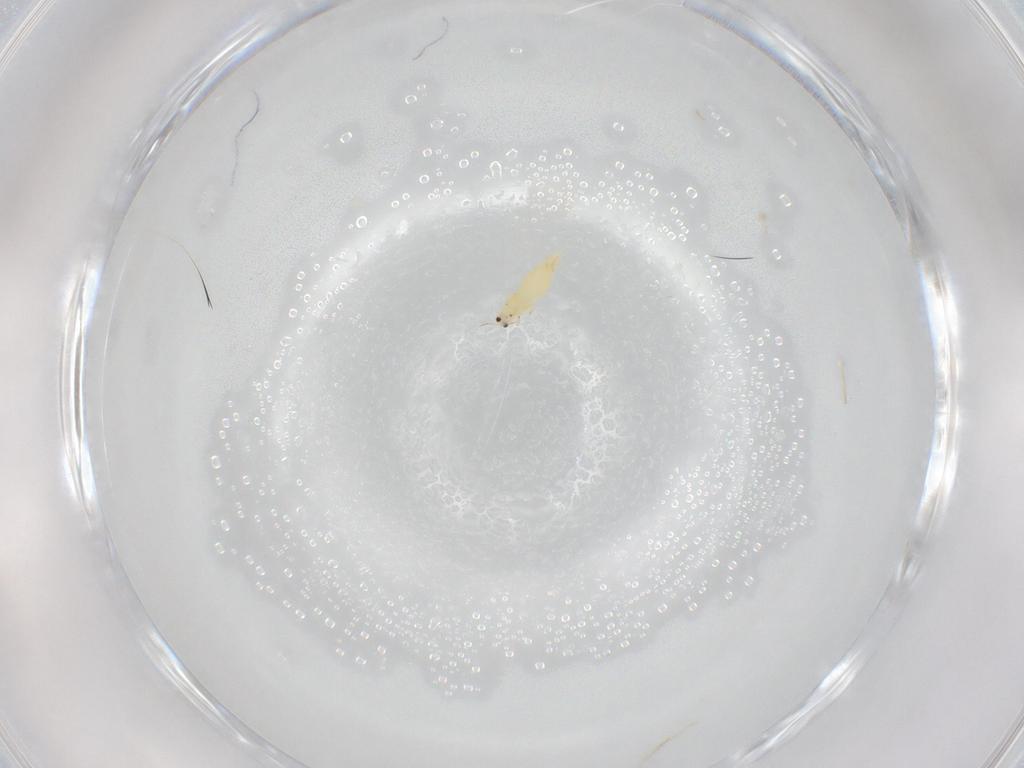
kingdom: Animalia
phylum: Arthropoda
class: Insecta
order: Thysanoptera
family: Aeolothripidae
